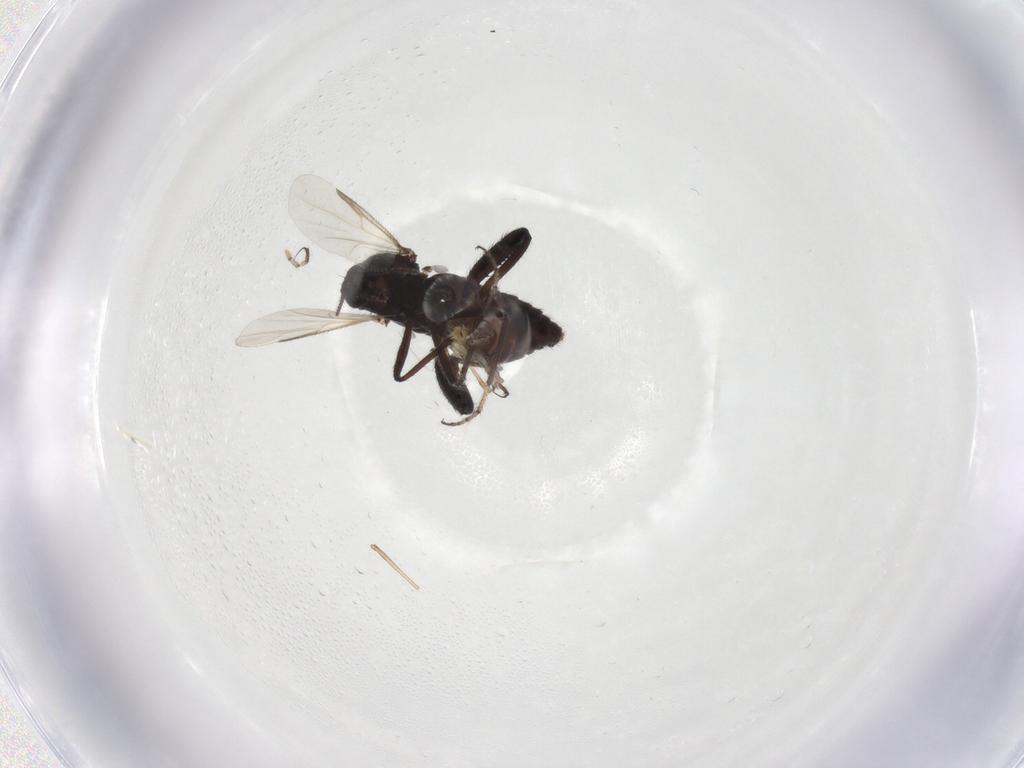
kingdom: Animalia
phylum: Arthropoda
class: Insecta
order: Diptera
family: Ceratopogonidae
